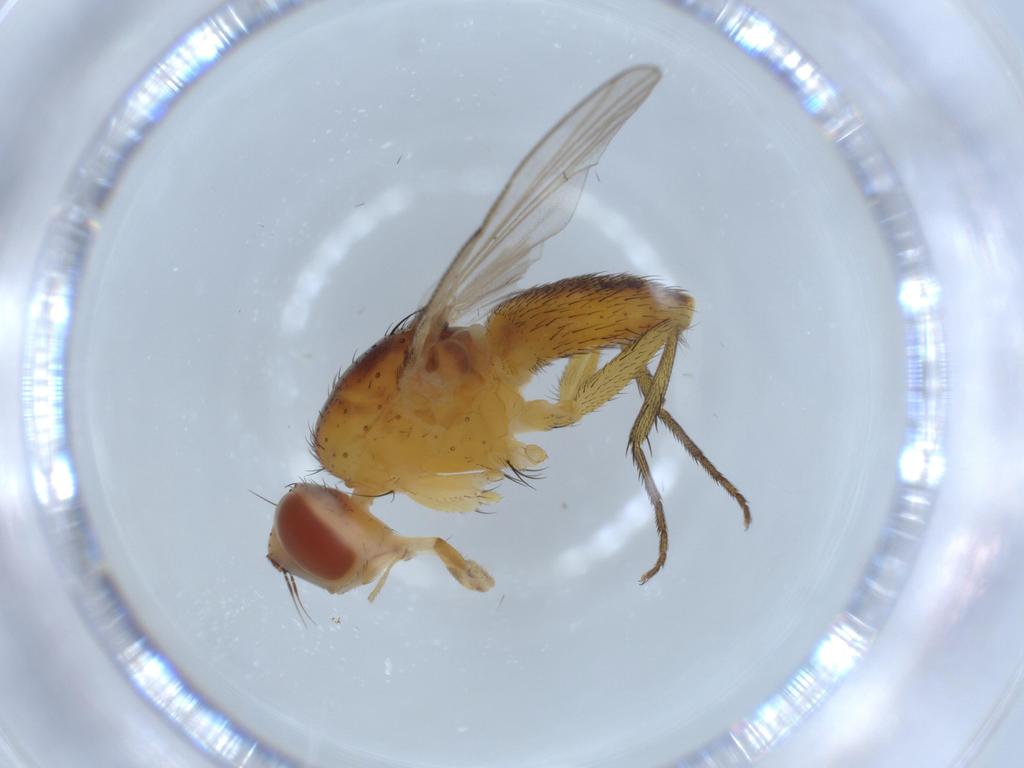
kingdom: Animalia
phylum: Arthropoda
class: Insecta
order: Diptera
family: Muscidae
